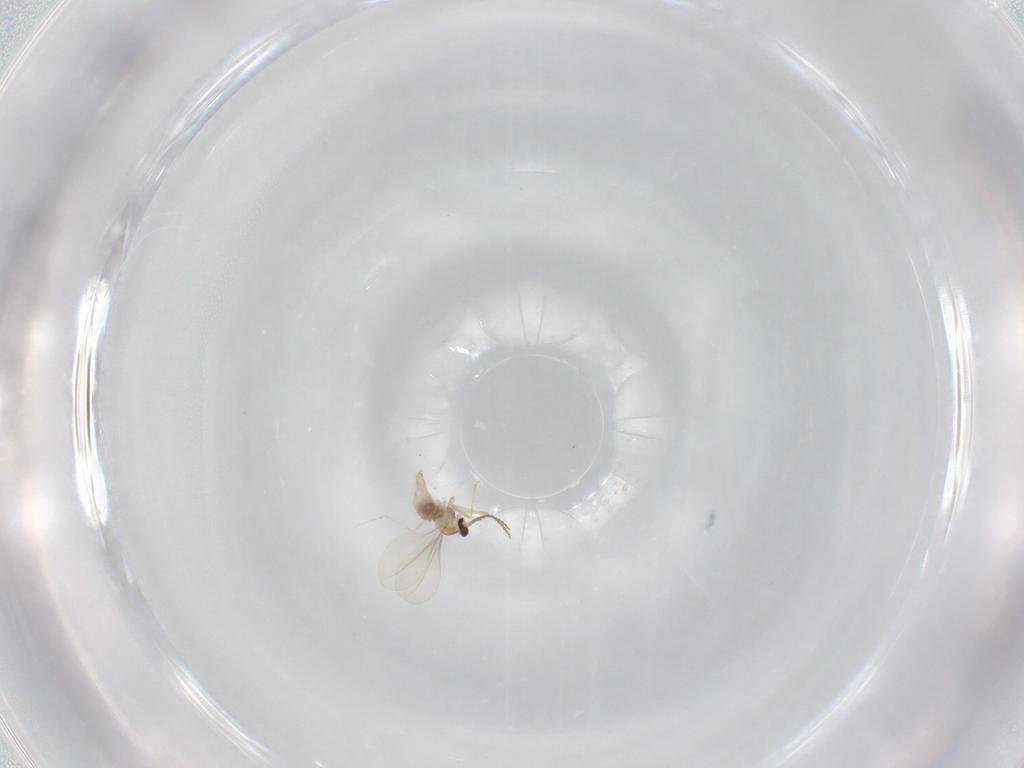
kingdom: Animalia
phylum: Arthropoda
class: Insecta
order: Diptera
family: Cecidomyiidae
